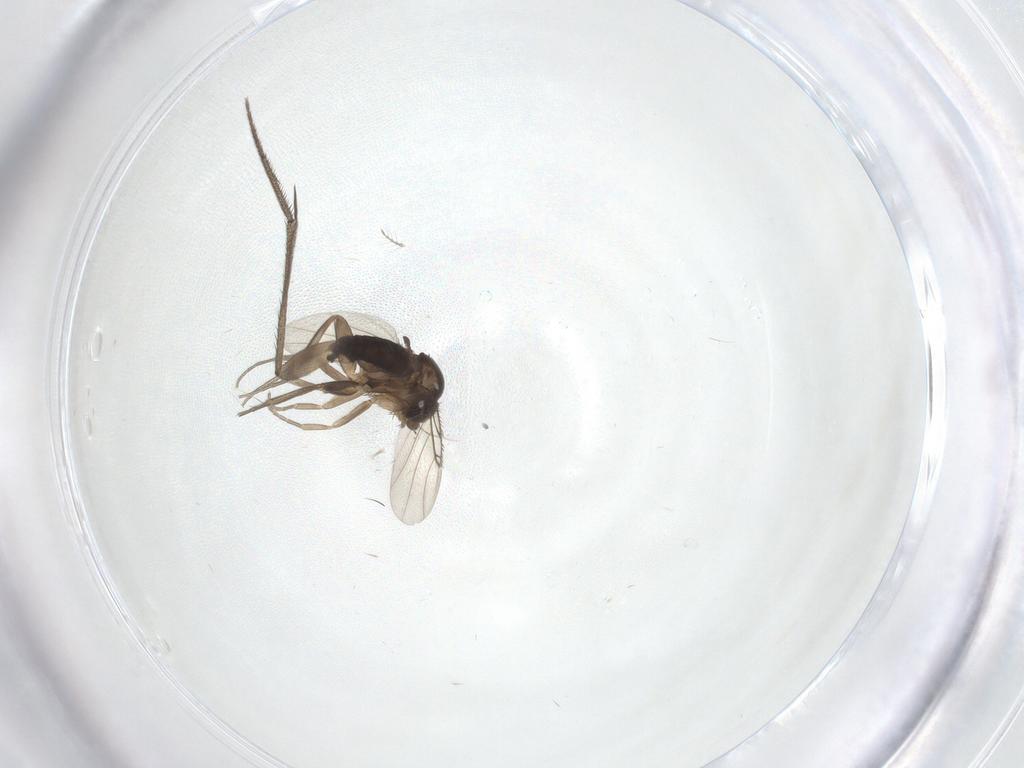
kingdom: Animalia
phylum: Arthropoda
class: Insecta
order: Diptera
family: Phoridae
